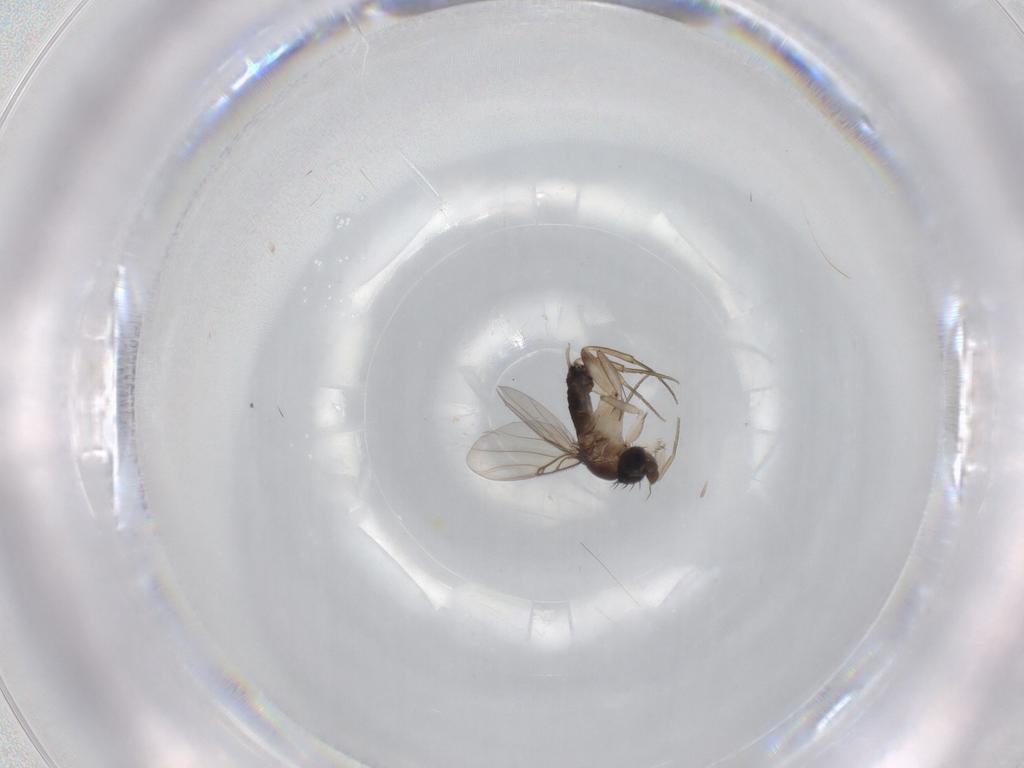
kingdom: Animalia
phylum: Arthropoda
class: Insecta
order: Diptera
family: Phoridae
